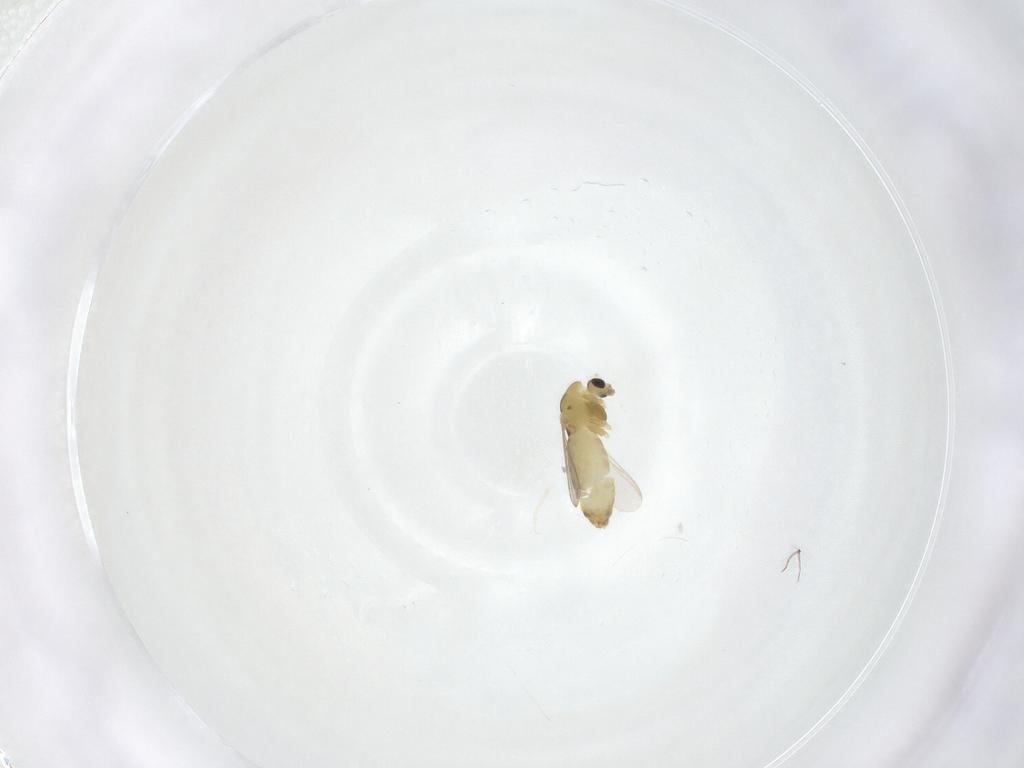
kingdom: Animalia
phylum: Arthropoda
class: Insecta
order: Diptera
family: Chironomidae
